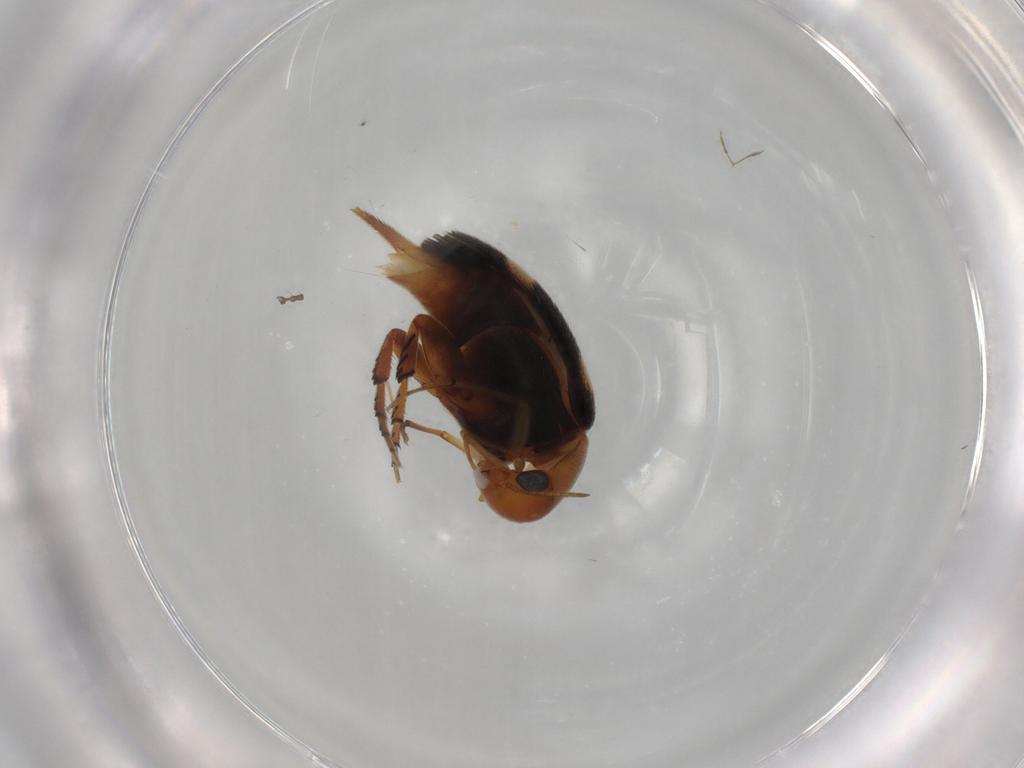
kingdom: Animalia
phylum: Arthropoda
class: Insecta
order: Coleoptera
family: Mordellidae
